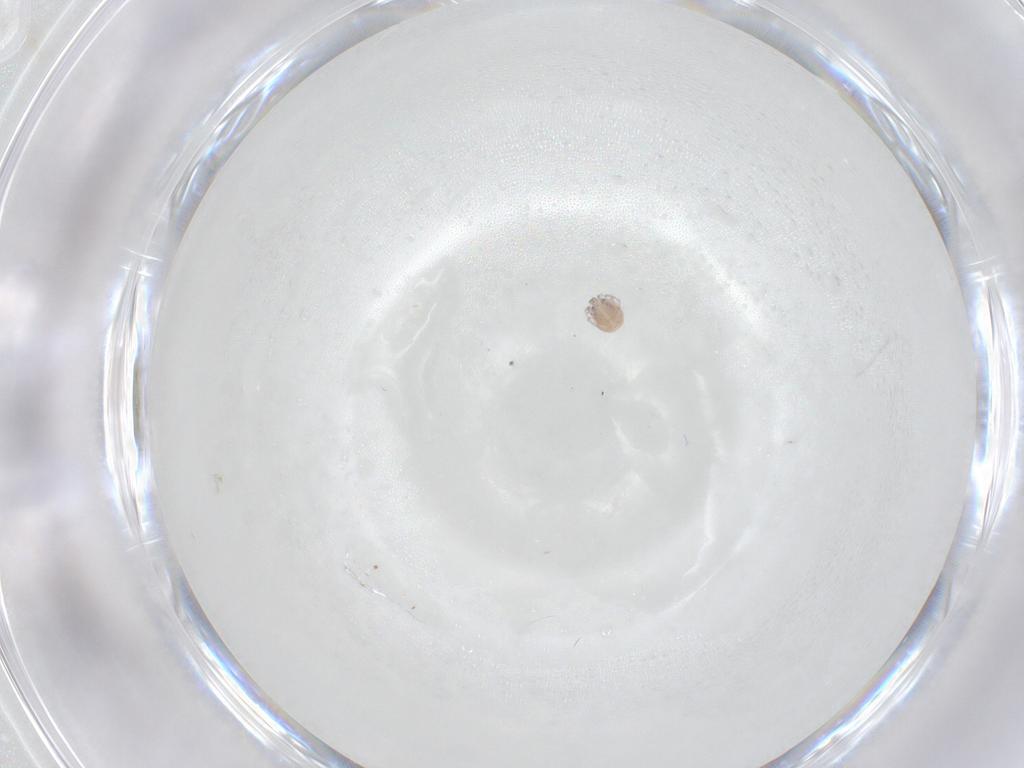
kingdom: Animalia
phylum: Arthropoda
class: Arachnida
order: Trombidiformes
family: Pionidae
